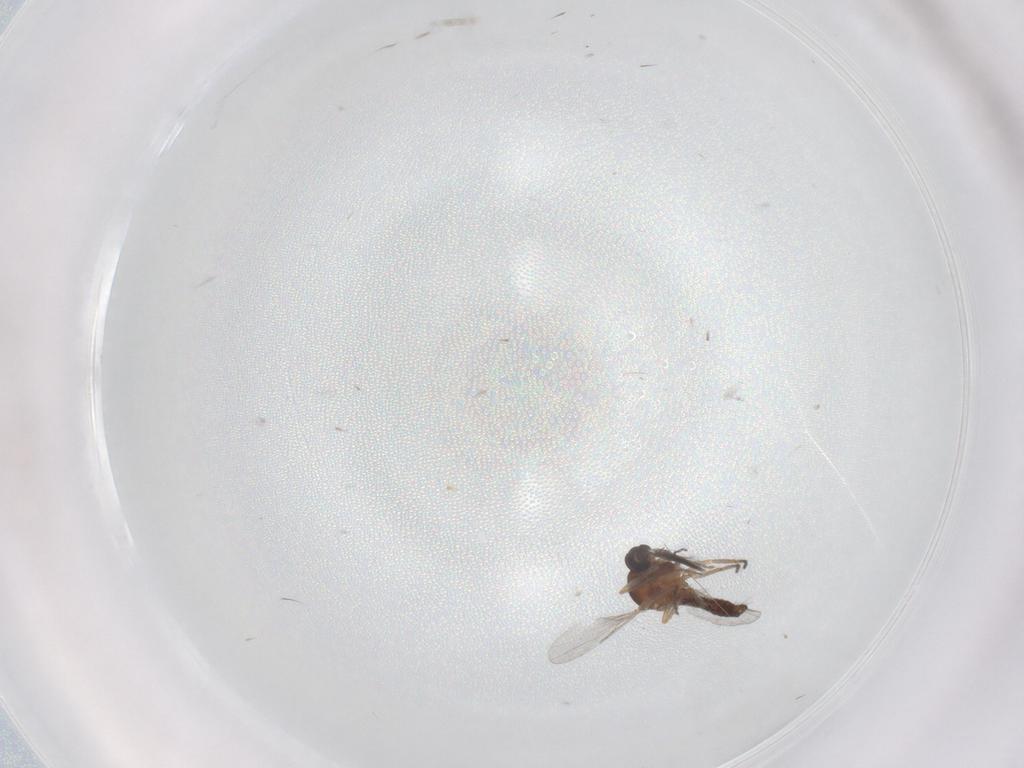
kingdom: Animalia
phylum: Arthropoda
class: Insecta
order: Diptera
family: Ceratopogonidae
